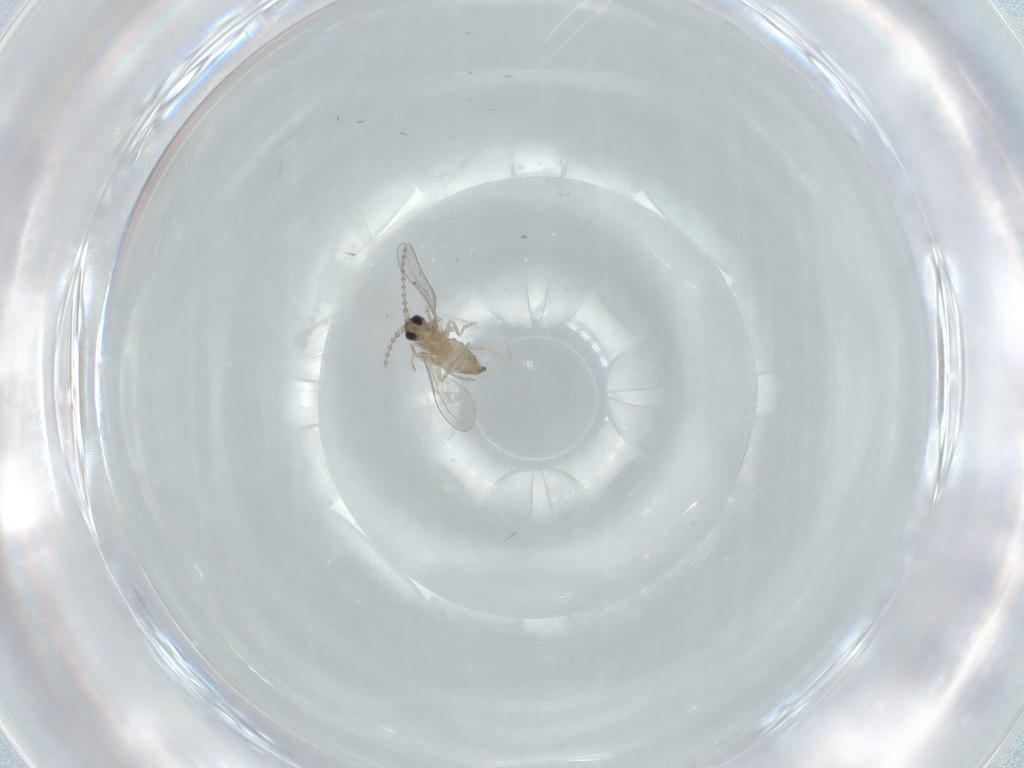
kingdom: Animalia
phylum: Arthropoda
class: Insecta
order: Diptera
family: Cecidomyiidae
